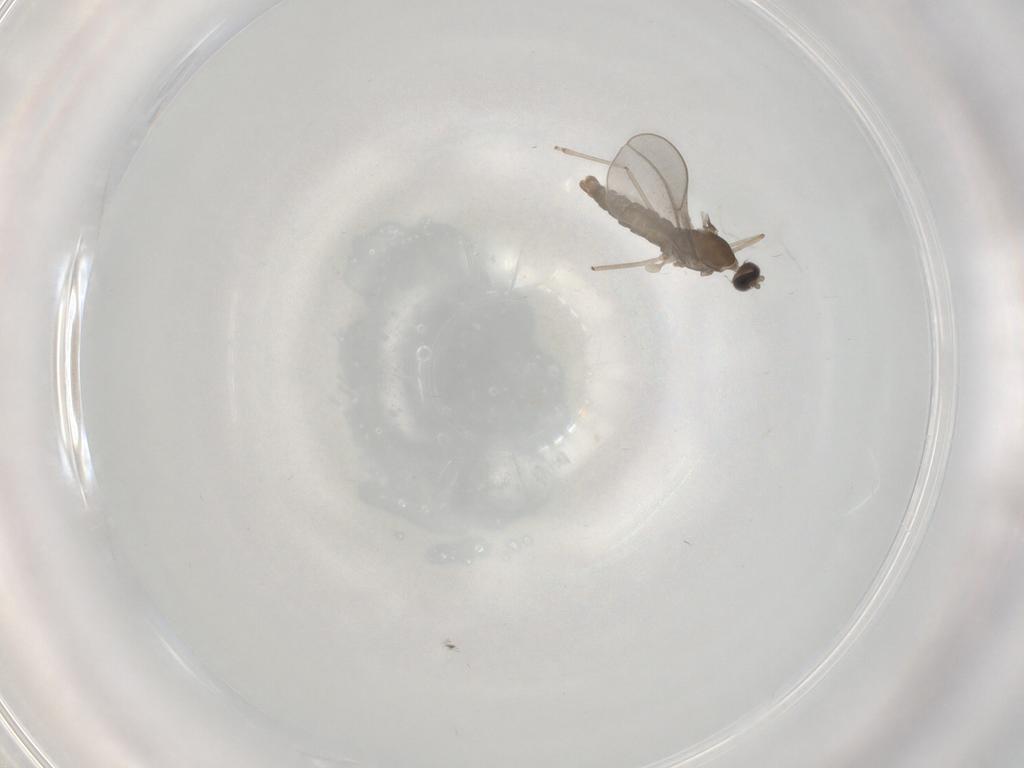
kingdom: Animalia
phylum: Arthropoda
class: Insecta
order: Diptera
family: Cecidomyiidae
